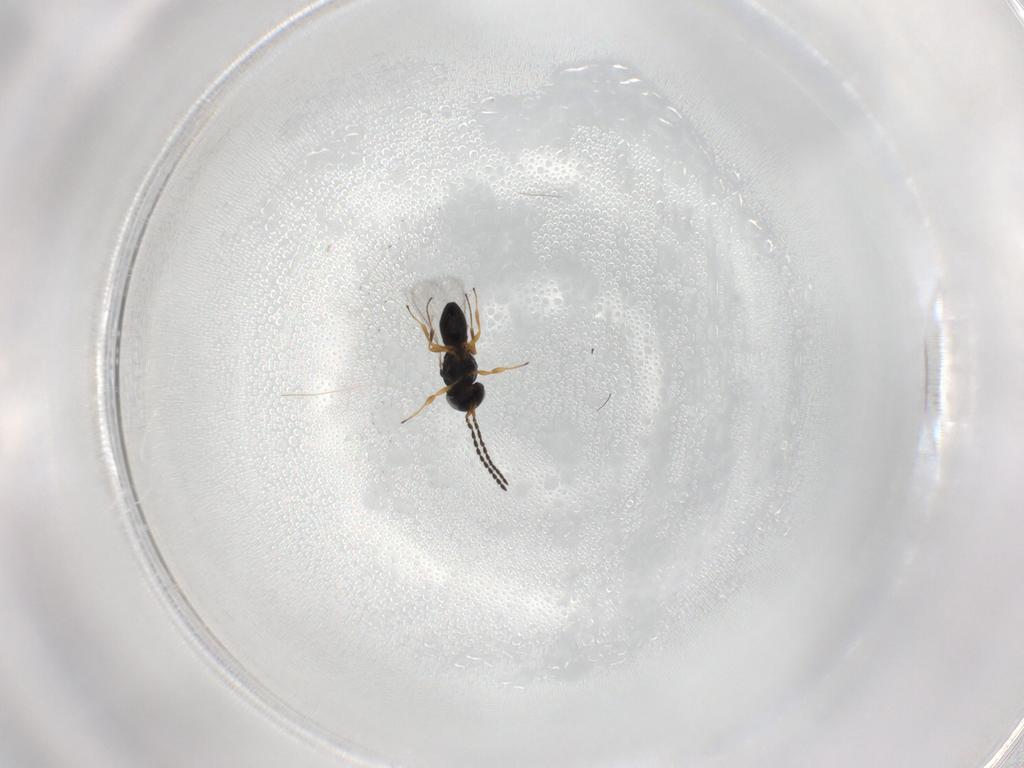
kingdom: Animalia
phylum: Arthropoda
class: Insecta
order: Hymenoptera
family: Scelionidae
